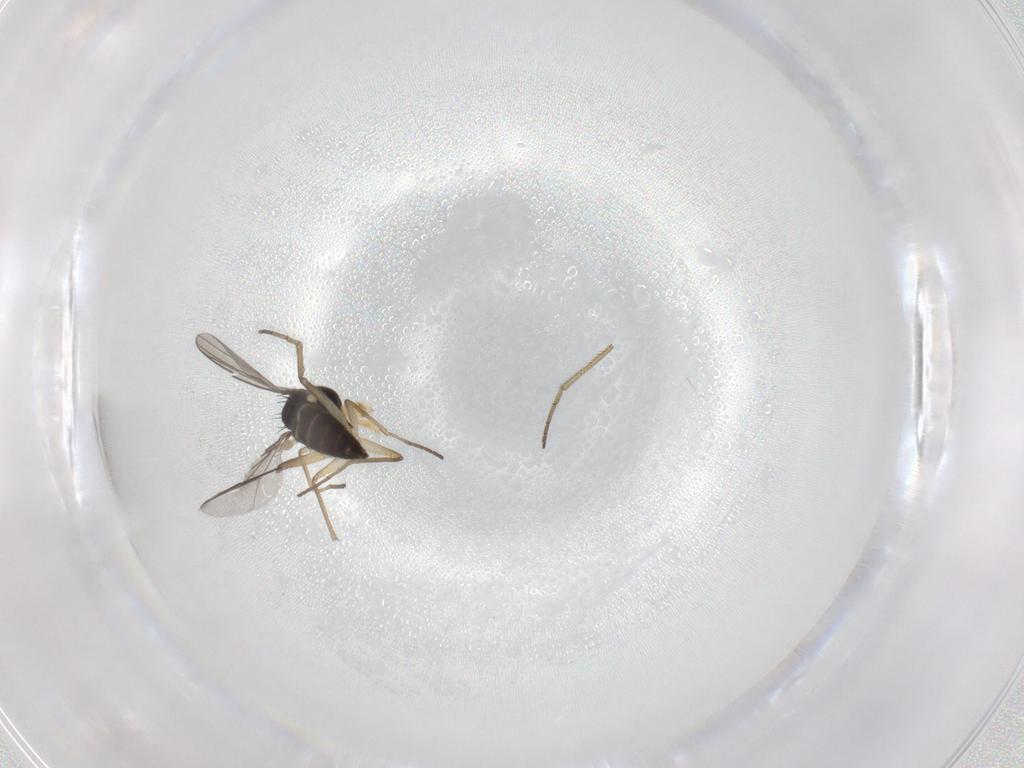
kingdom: Animalia
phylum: Arthropoda
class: Insecta
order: Diptera
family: Dolichopodidae
